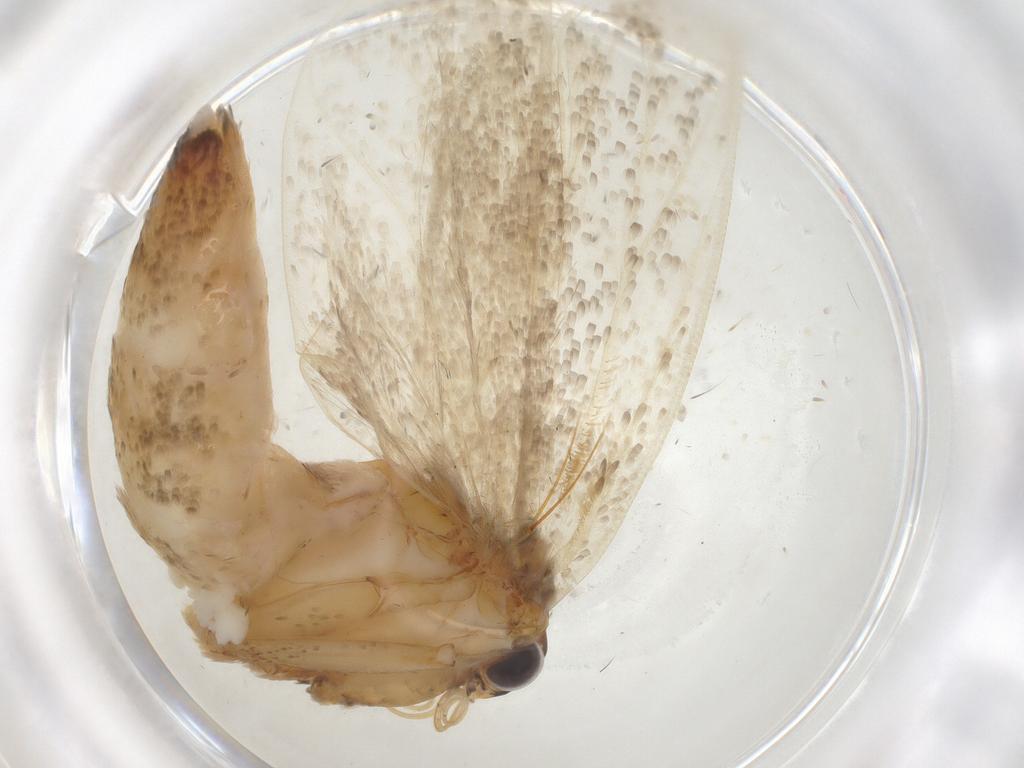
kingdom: Animalia
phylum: Arthropoda
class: Insecta
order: Lepidoptera
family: Gelechiidae
